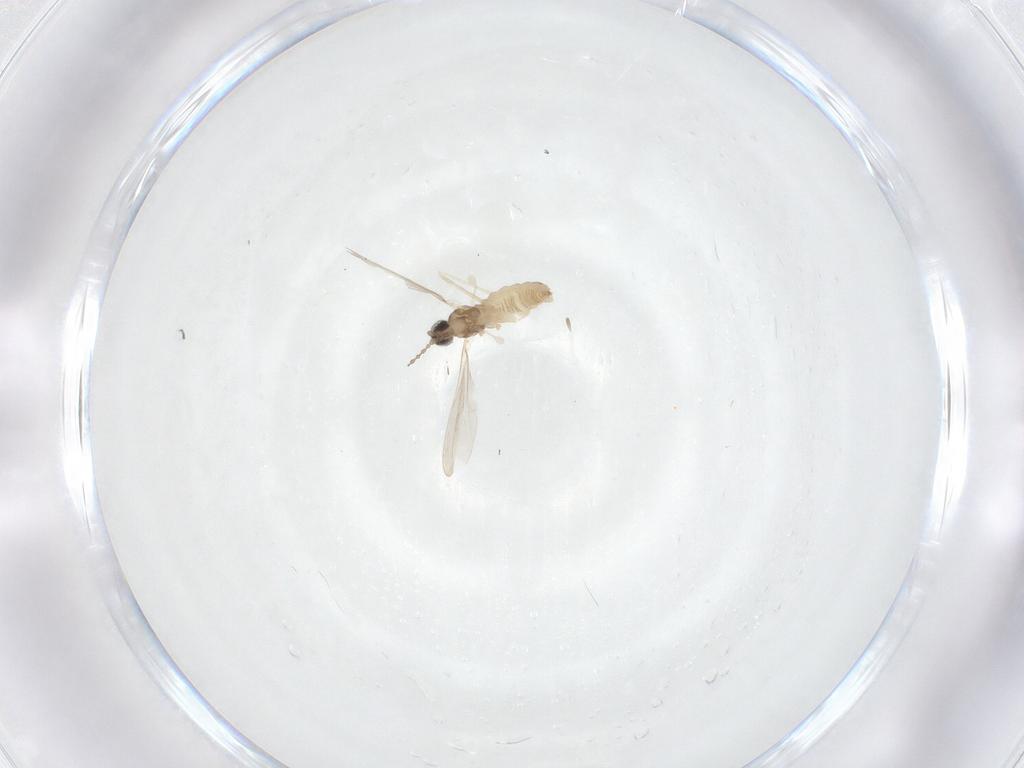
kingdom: Animalia
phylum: Arthropoda
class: Insecta
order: Diptera
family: Cecidomyiidae
